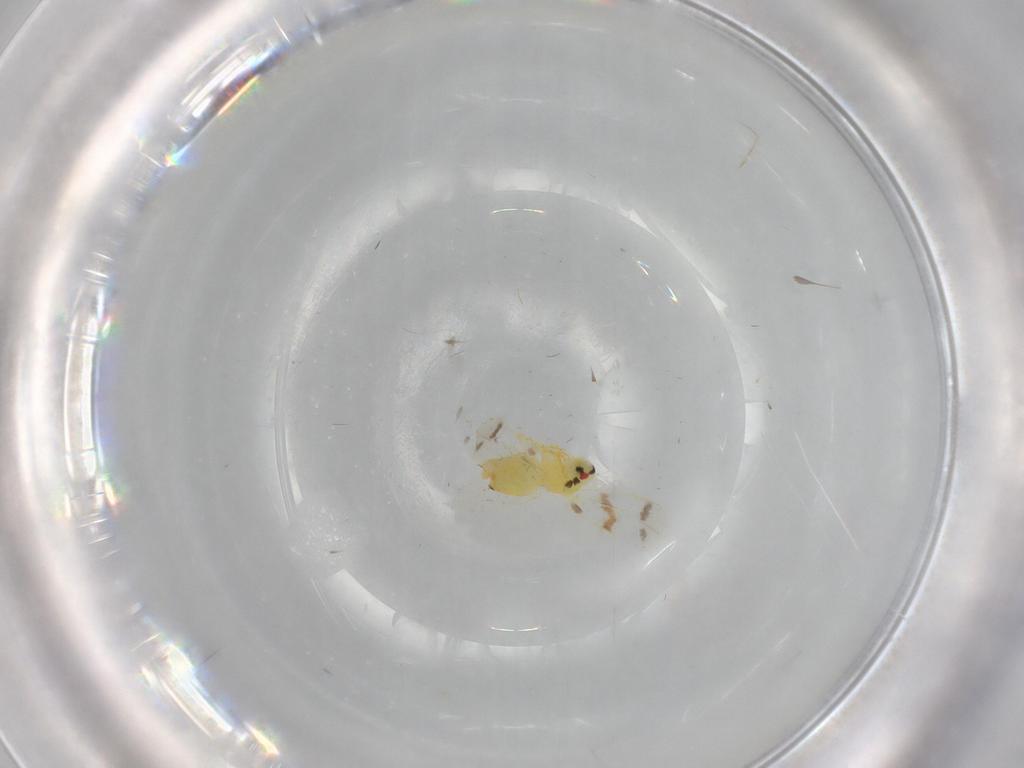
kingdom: Animalia
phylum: Arthropoda
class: Insecta
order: Hemiptera
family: Aleyrodidae
